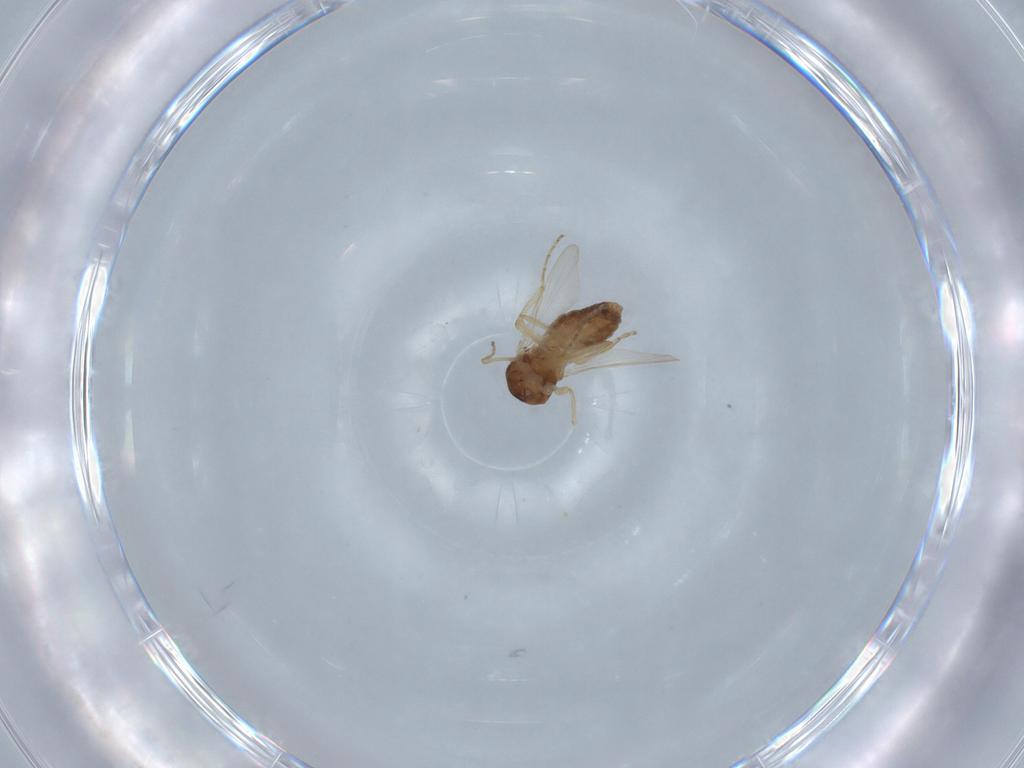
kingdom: Animalia
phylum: Arthropoda
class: Insecta
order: Diptera
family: Ceratopogonidae
